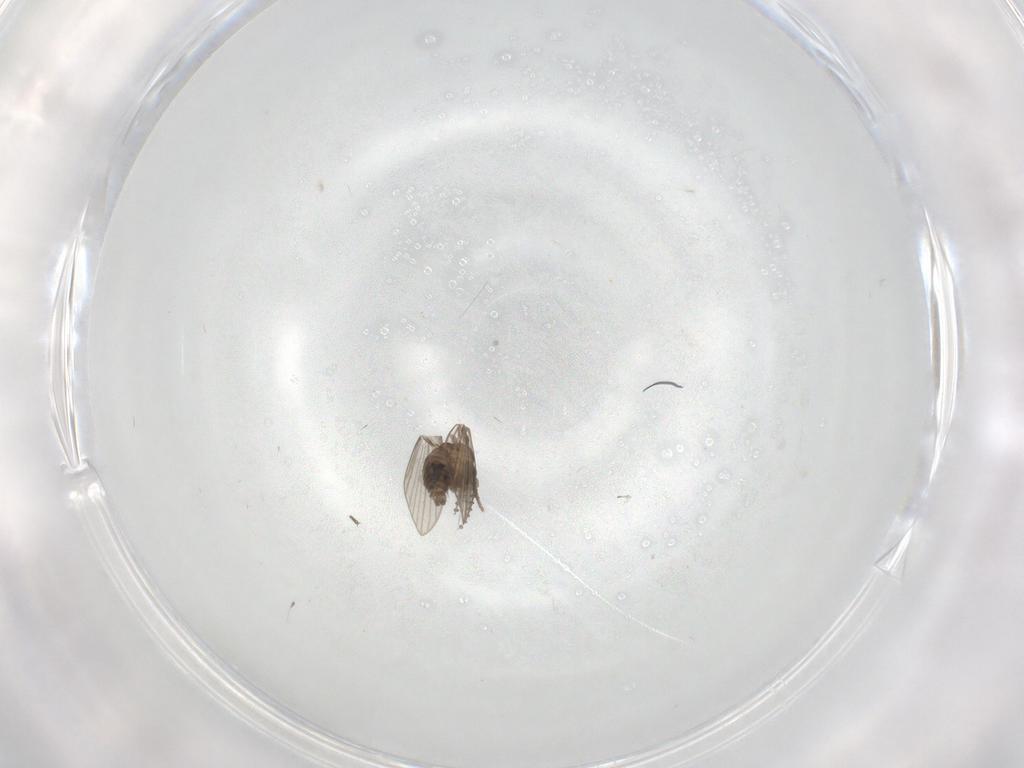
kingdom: Animalia
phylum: Arthropoda
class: Insecta
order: Diptera
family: Psychodidae
